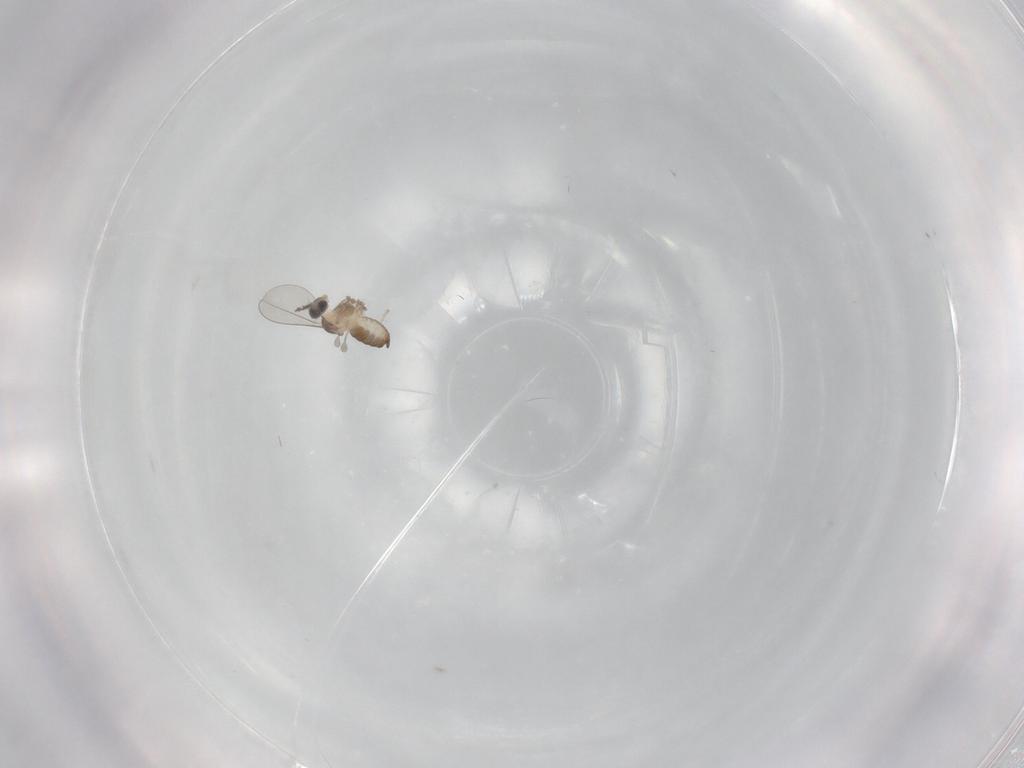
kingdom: Animalia
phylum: Arthropoda
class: Insecta
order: Diptera
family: Cecidomyiidae
